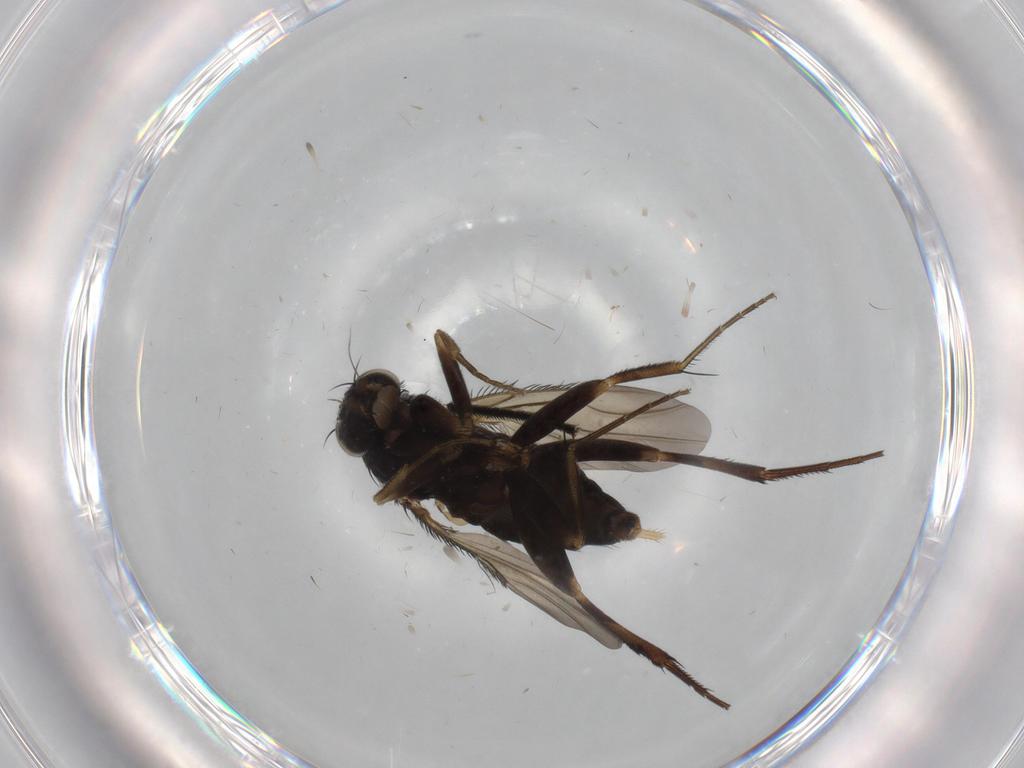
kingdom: Animalia
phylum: Arthropoda
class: Insecta
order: Diptera
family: Phoridae
